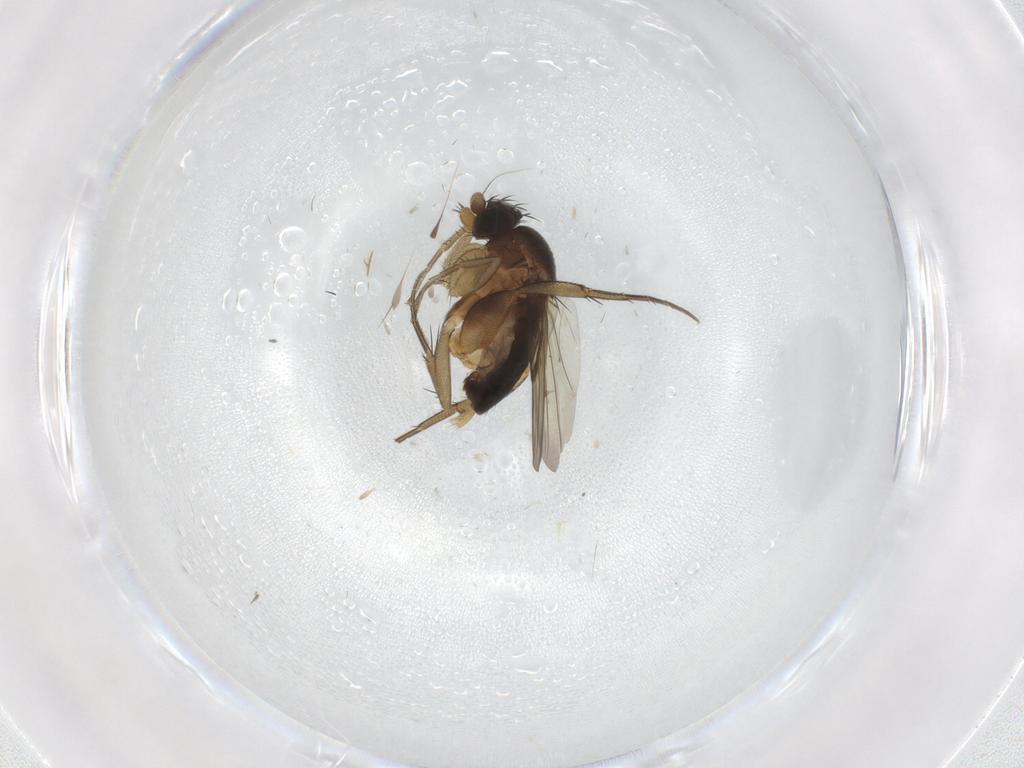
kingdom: Animalia
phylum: Arthropoda
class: Insecta
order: Diptera
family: Phoridae
